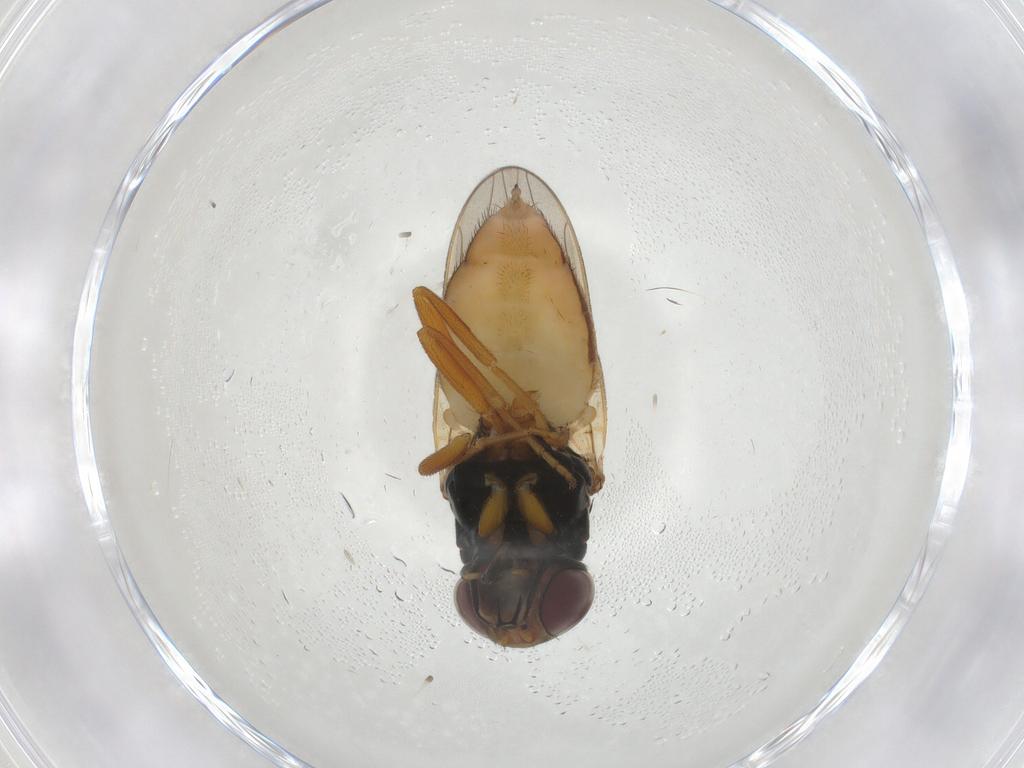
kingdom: Animalia
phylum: Arthropoda
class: Insecta
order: Diptera
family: Chloropidae
